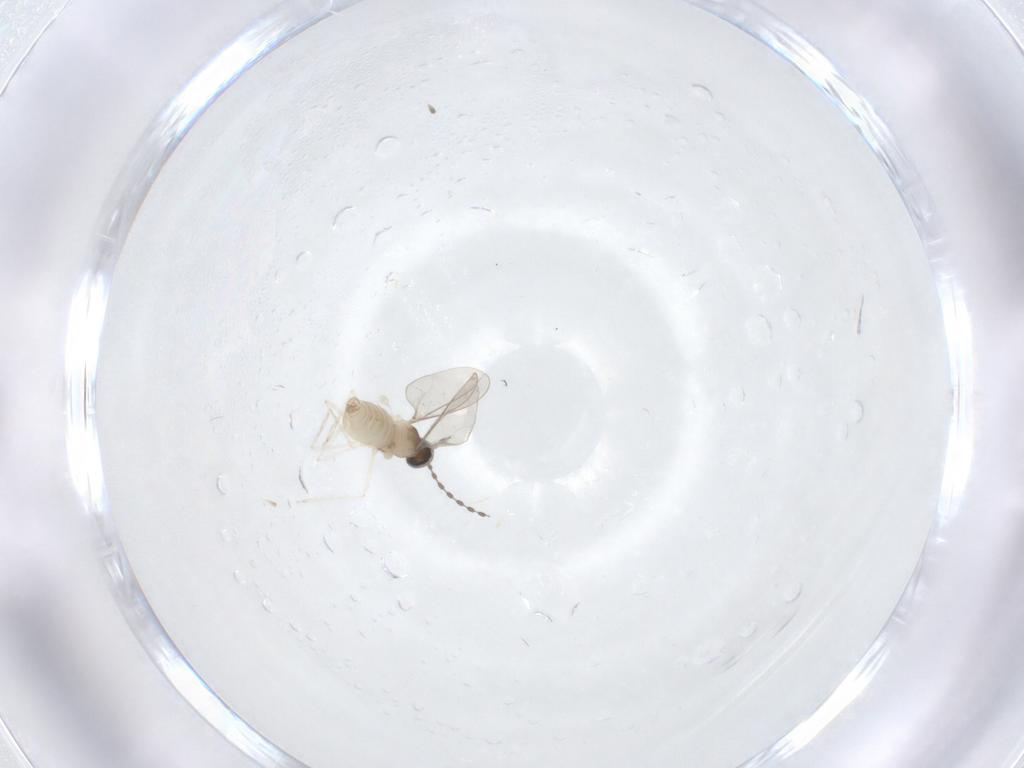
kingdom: Animalia
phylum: Arthropoda
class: Insecta
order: Diptera
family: Chironomidae
